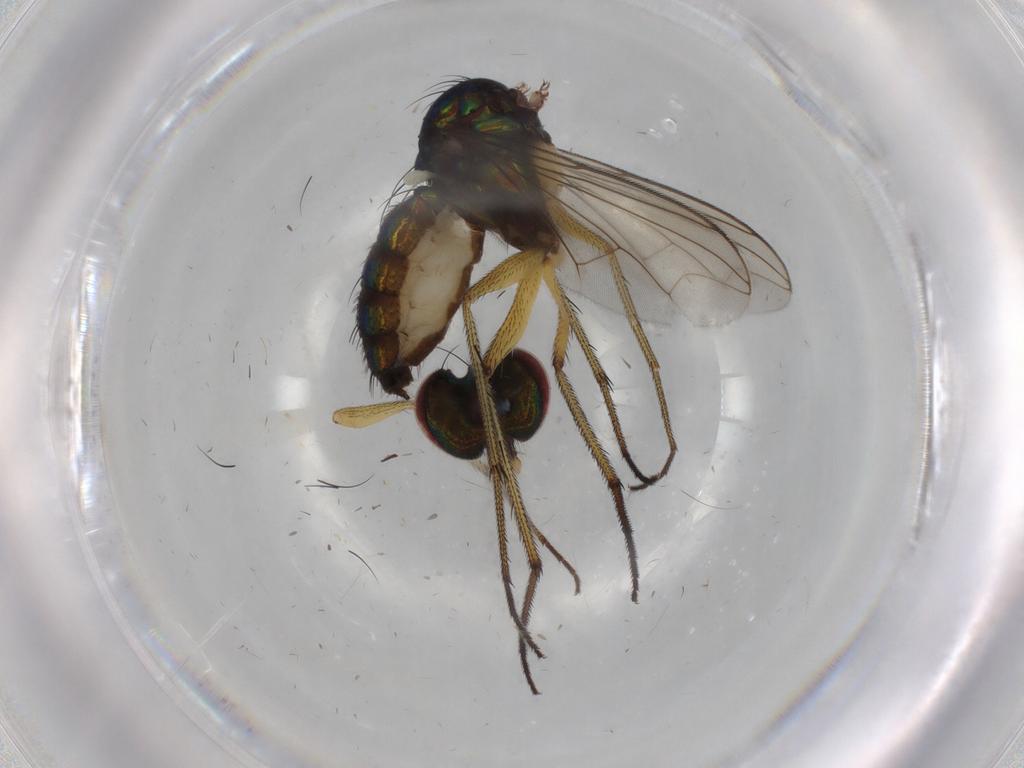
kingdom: Animalia
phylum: Arthropoda
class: Insecta
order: Diptera
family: Dolichopodidae
